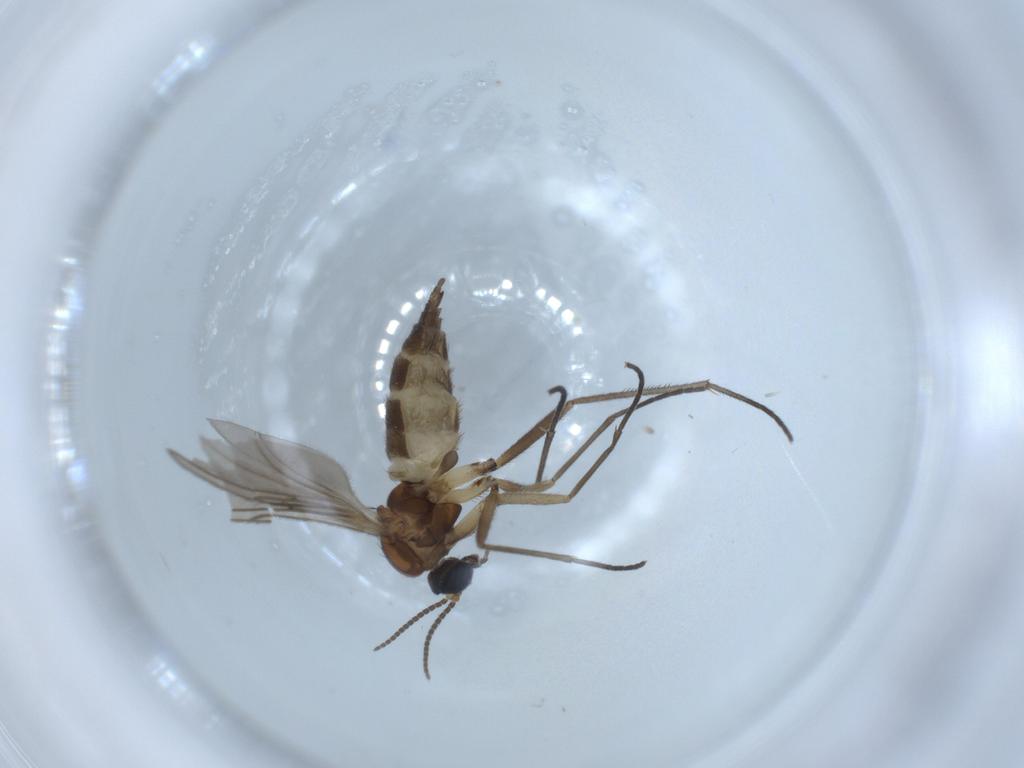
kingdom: Animalia
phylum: Arthropoda
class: Insecta
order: Diptera
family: Sciaridae
